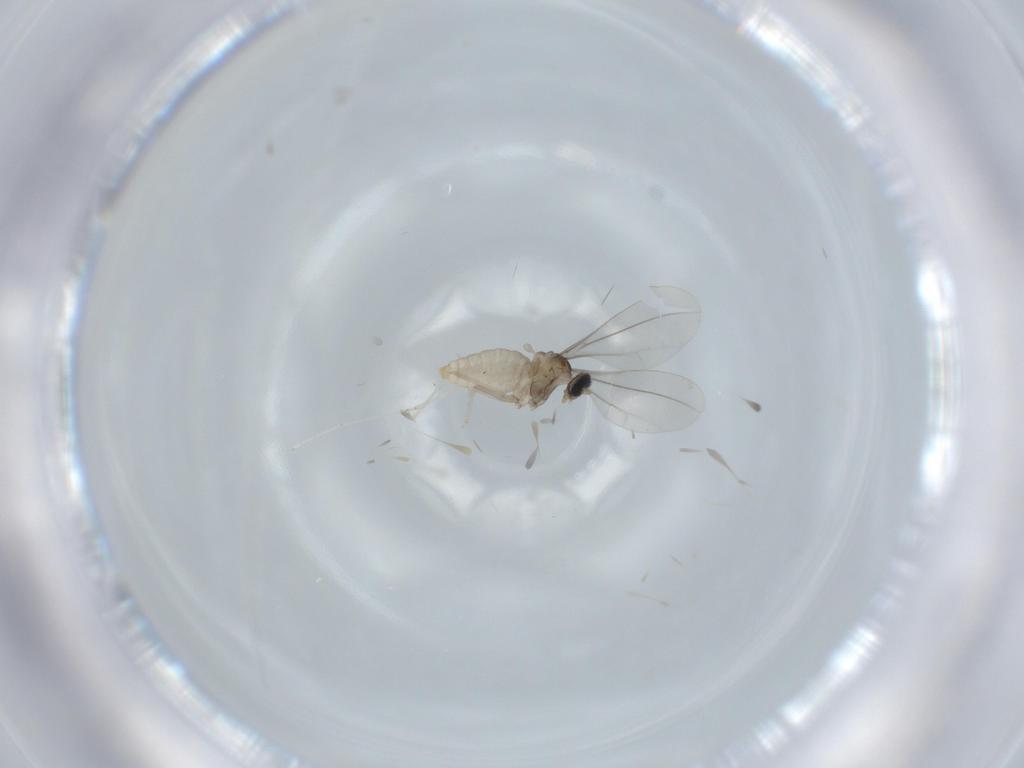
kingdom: Animalia
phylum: Arthropoda
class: Insecta
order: Diptera
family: Cecidomyiidae
